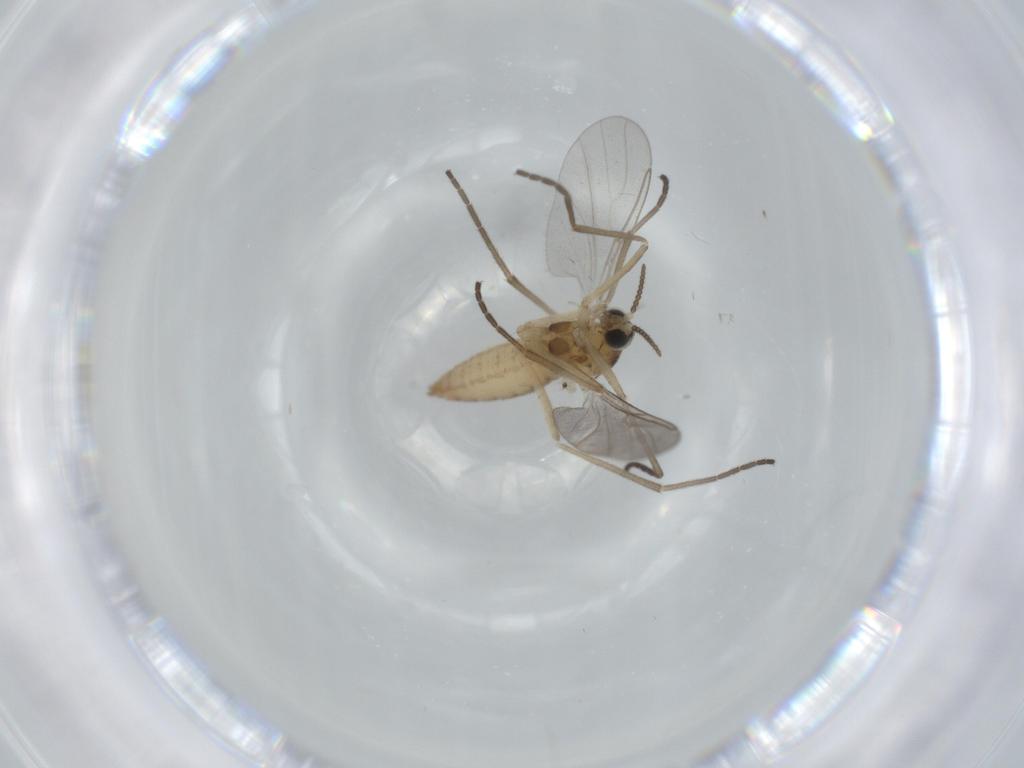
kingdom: Animalia
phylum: Arthropoda
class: Insecta
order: Diptera
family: Cecidomyiidae
